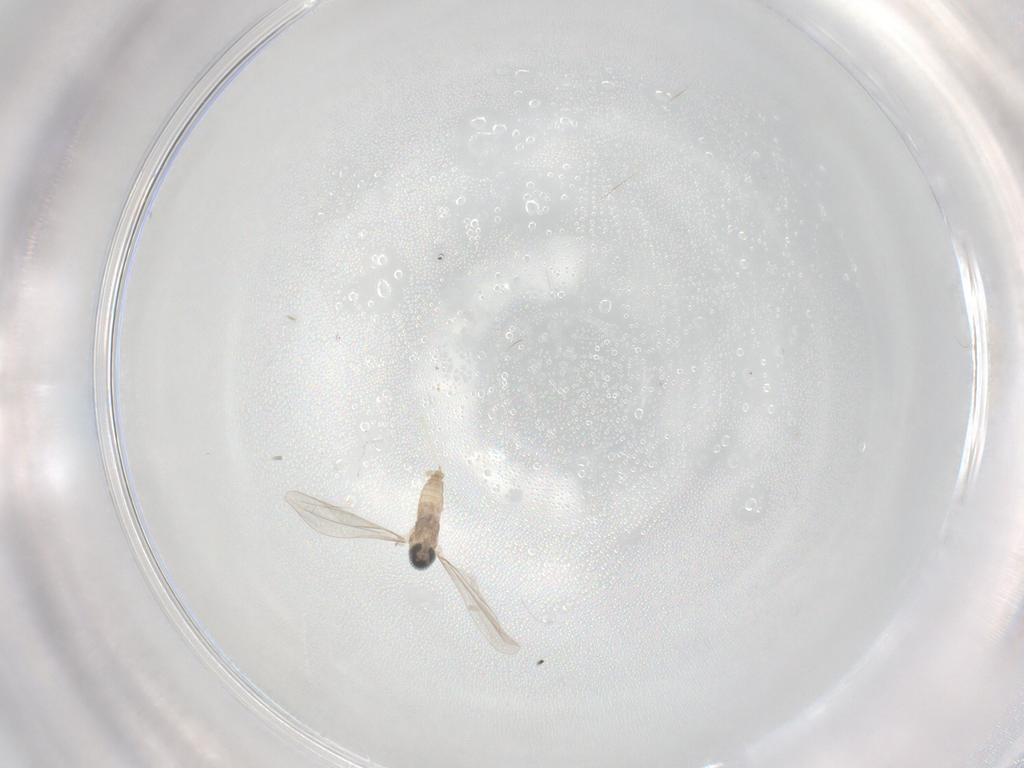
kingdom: Animalia
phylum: Arthropoda
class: Insecta
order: Diptera
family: Cecidomyiidae
